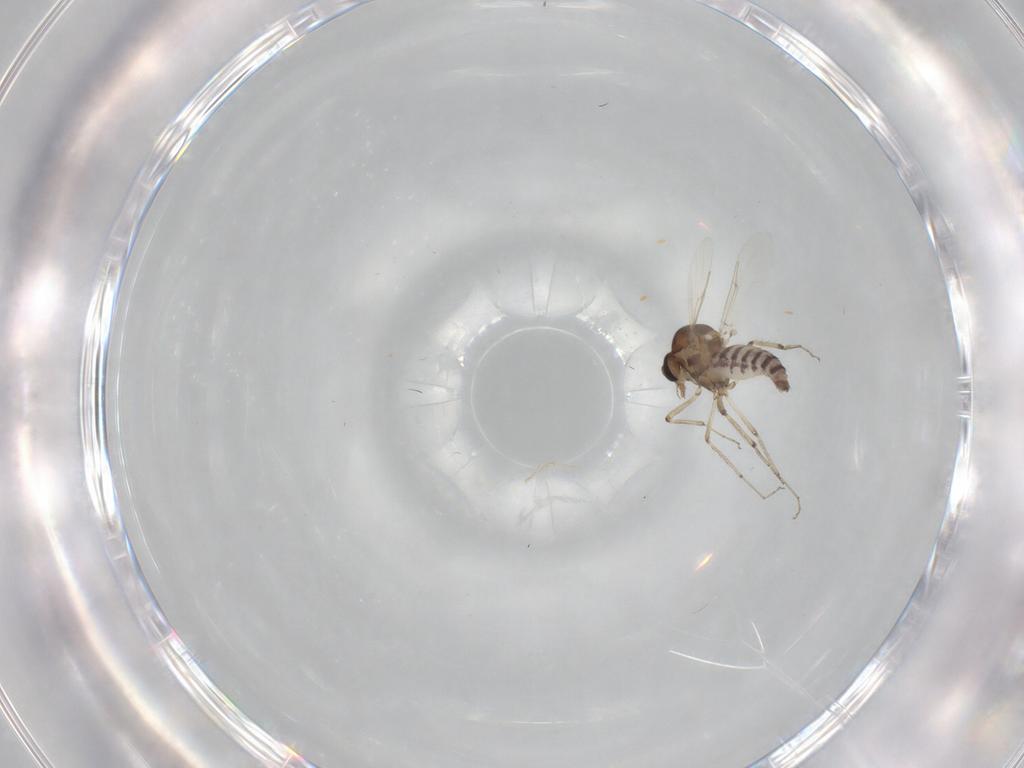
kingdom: Animalia
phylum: Arthropoda
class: Insecta
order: Diptera
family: Ceratopogonidae
